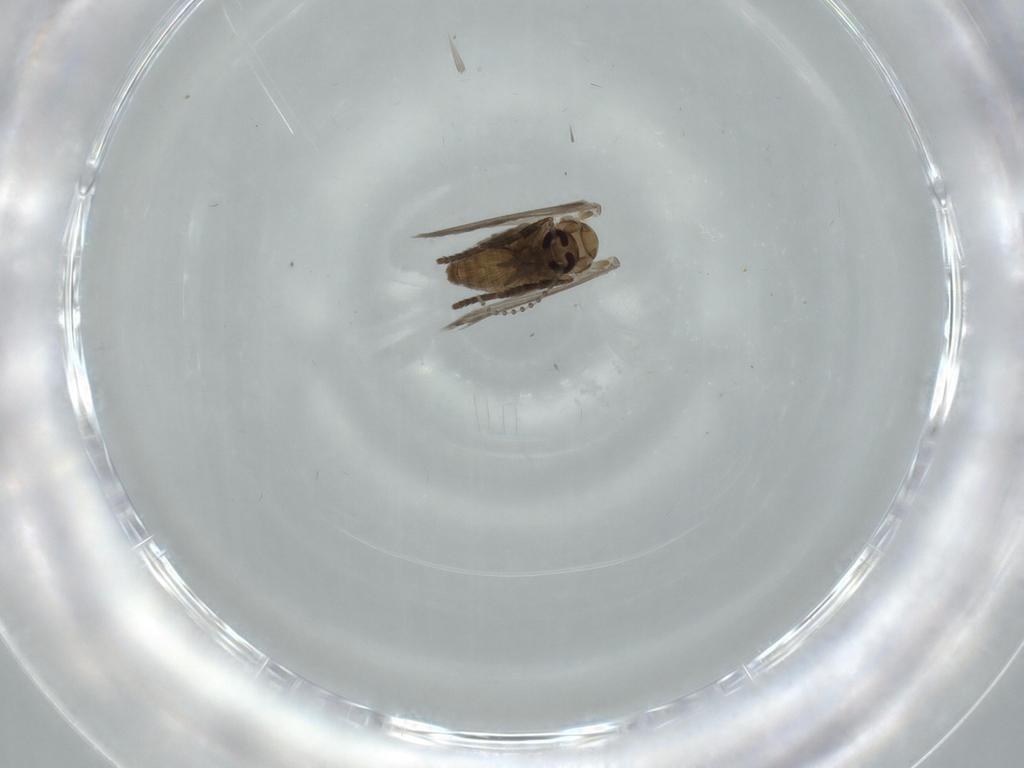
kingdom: Animalia
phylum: Arthropoda
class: Insecta
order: Diptera
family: Psychodidae
